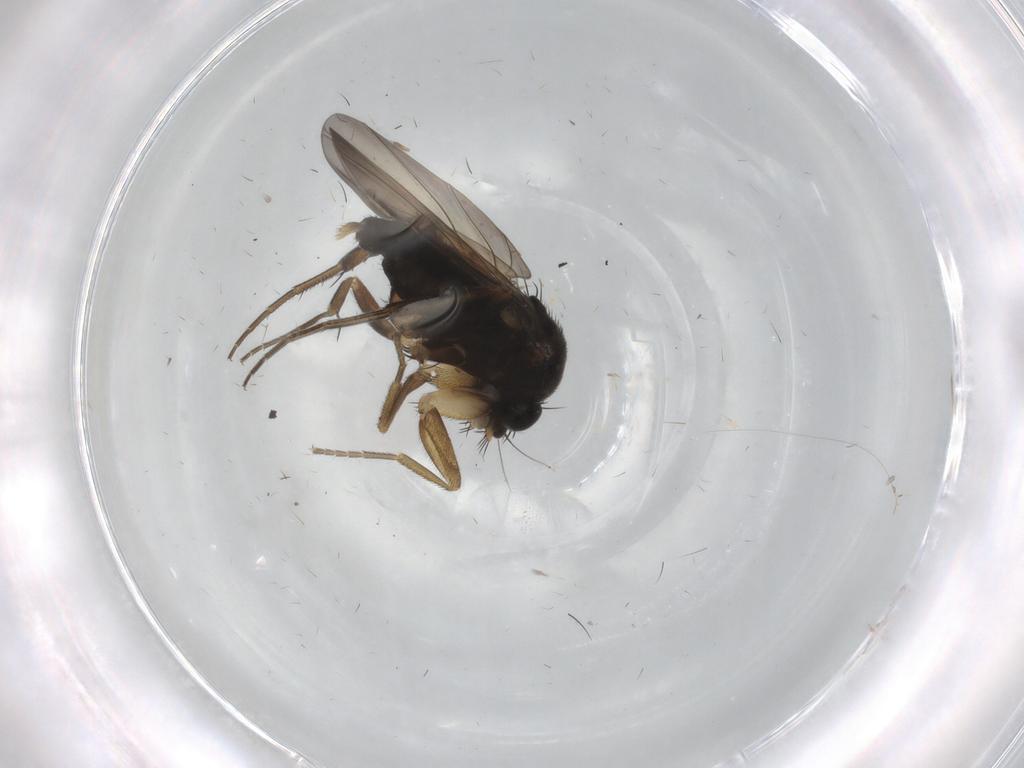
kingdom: Animalia
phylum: Arthropoda
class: Insecta
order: Diptera
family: Phoridae
